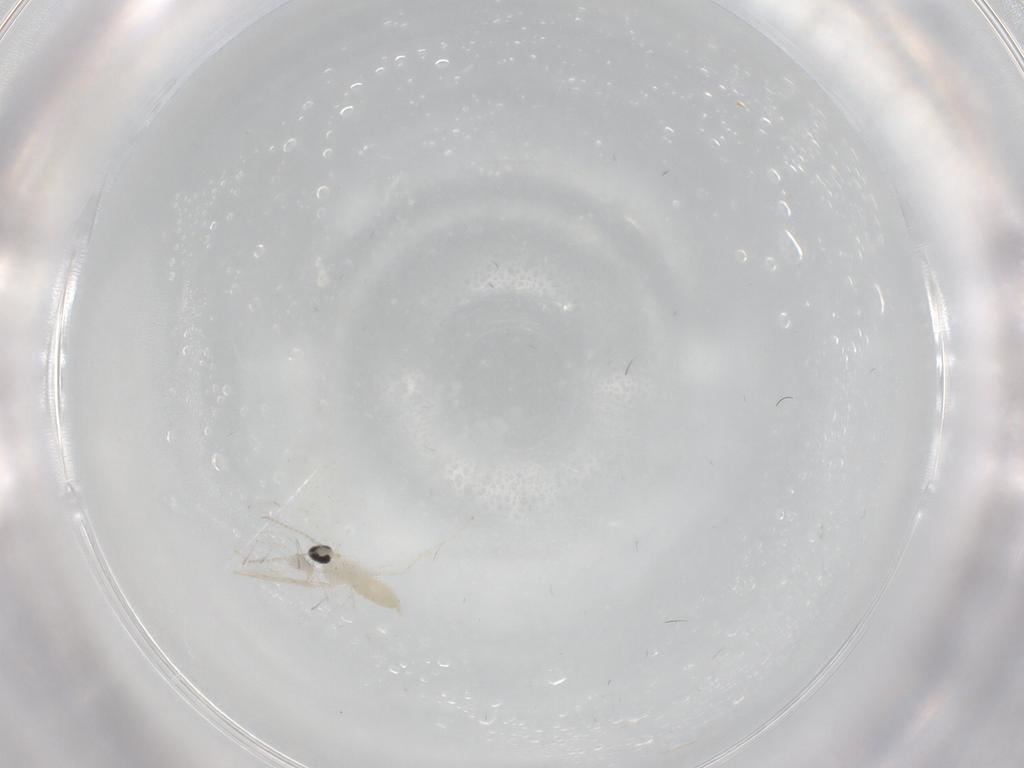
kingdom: Animalia
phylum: Arthropoda
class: Insecta
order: Diptera
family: Cecidomyiidae
